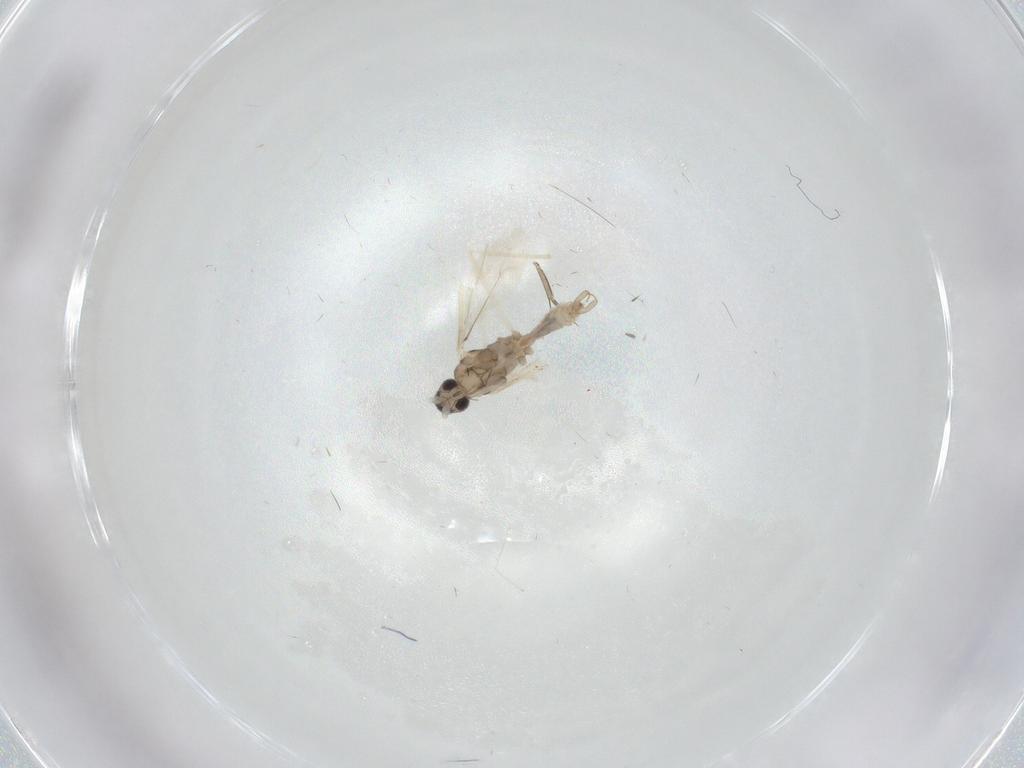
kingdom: Animalia
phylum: Arthropoda
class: Insecta
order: Diptera
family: Cecidomyiidae
